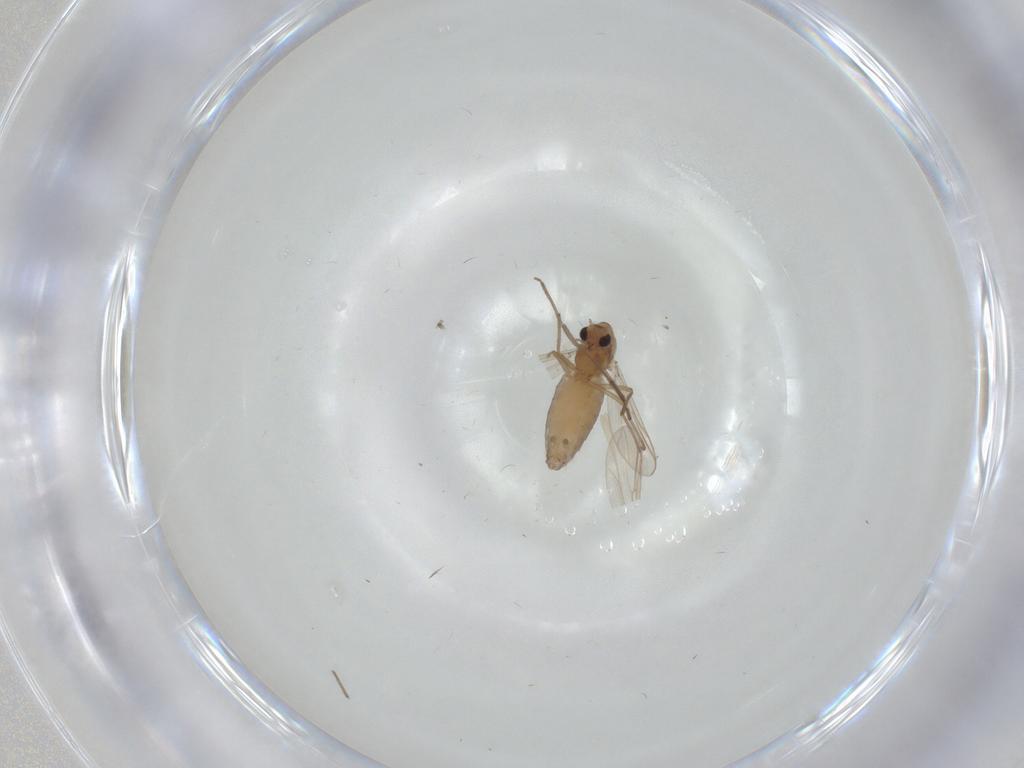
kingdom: Animalia
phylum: Arthropoda
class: Insecta
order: Diptera
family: Chironomidae
